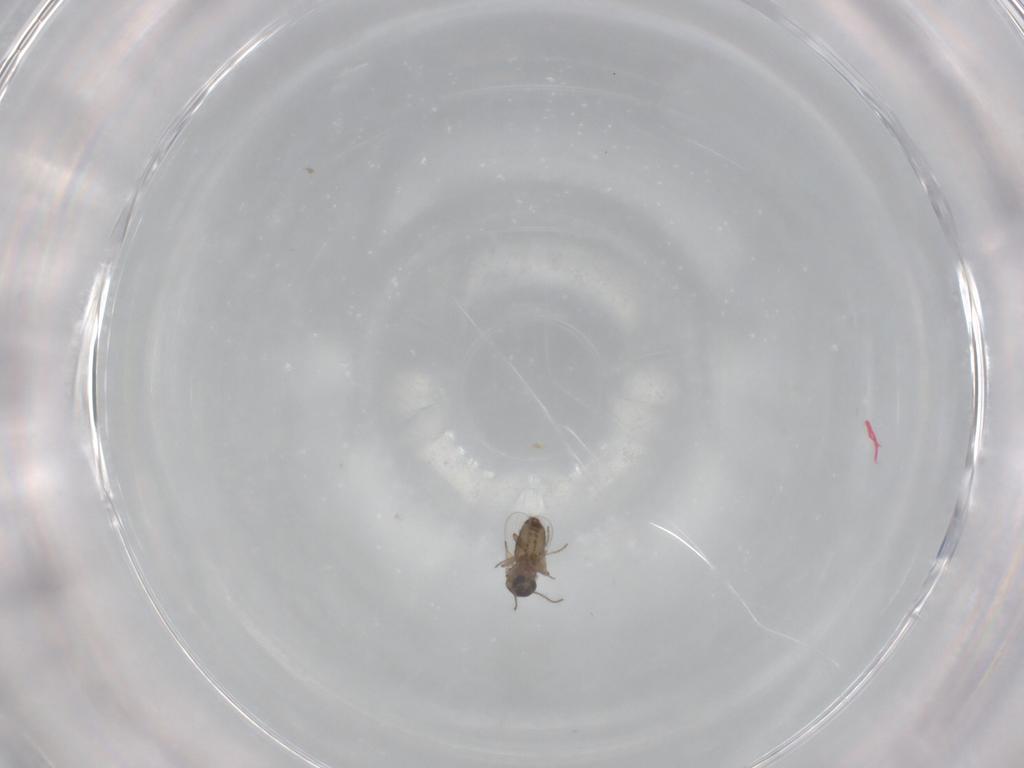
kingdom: Animalia
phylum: Arthropoda
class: Insecta
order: Diptera
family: Ceratopogonidae
